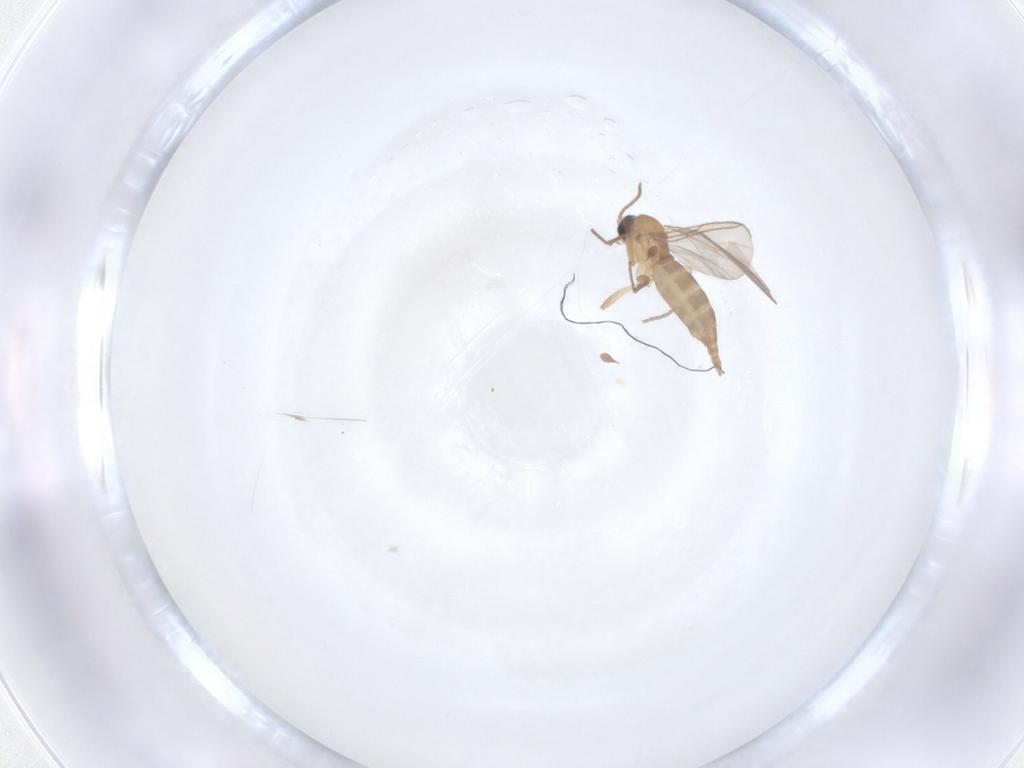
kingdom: Animalia
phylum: Arthropoda
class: Insecta
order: Diptera
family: Sciaridae
